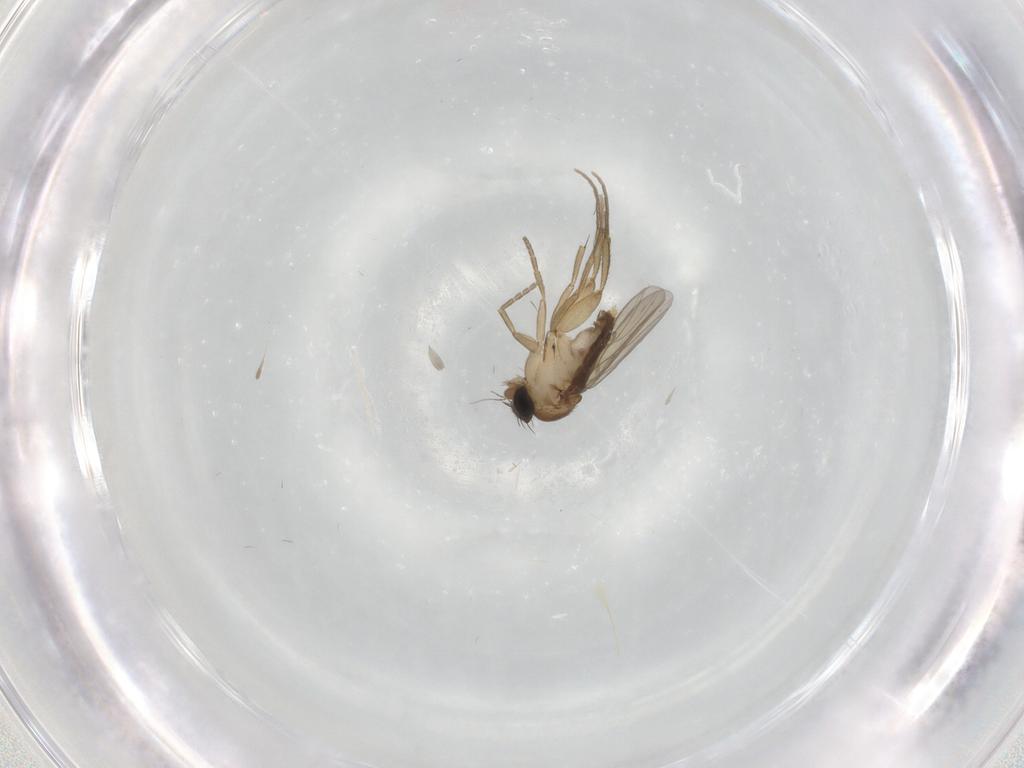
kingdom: Animalia
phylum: Arthropoda
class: Insecta
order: Diptera
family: Phoridae
